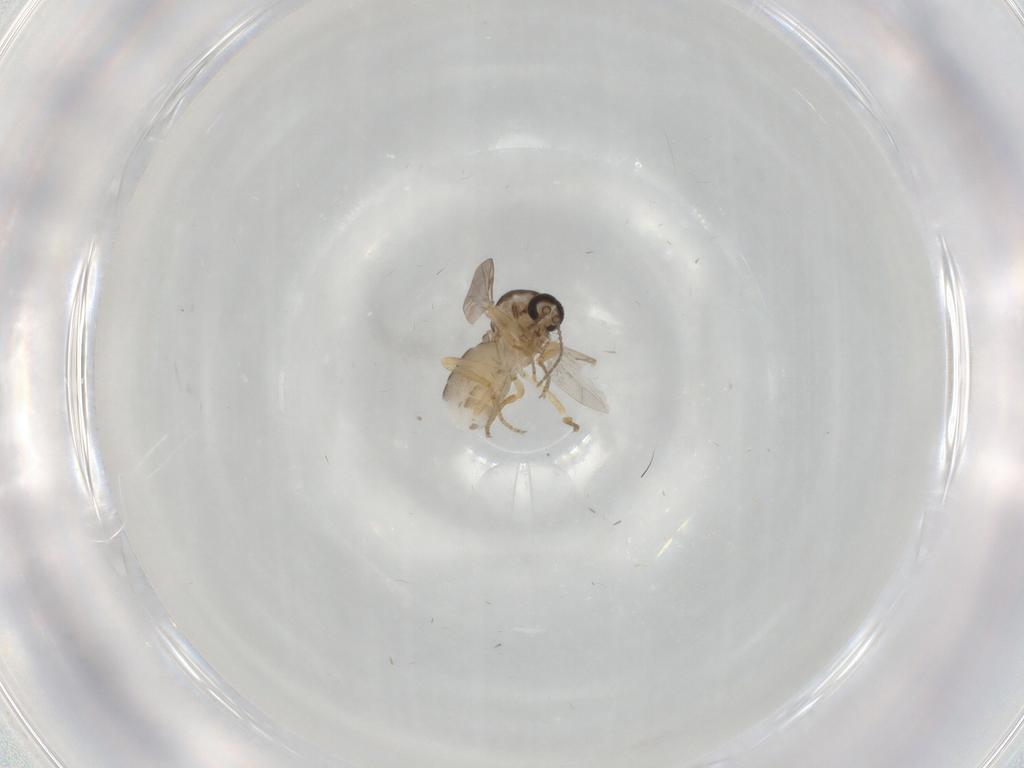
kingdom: Animalia
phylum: Arthropoda
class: Insecta
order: Diptera
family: Ceratopogonidae
